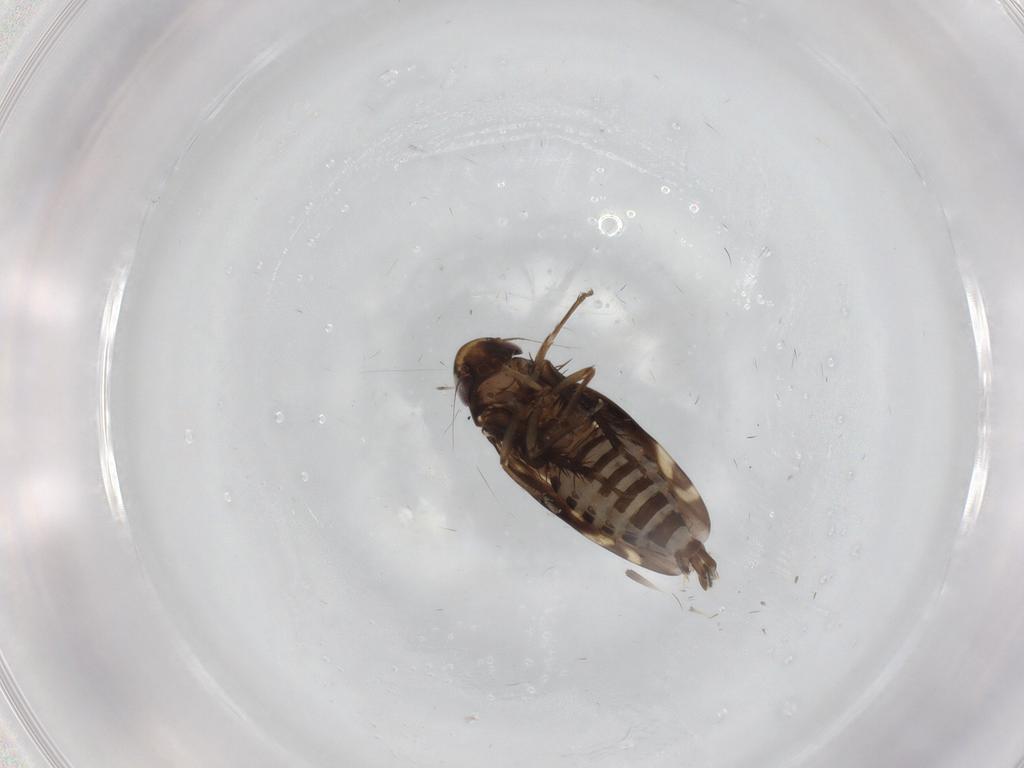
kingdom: Animalia
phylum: Arthropoda
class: Insecta
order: Hemiptera
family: Cicadellidae
